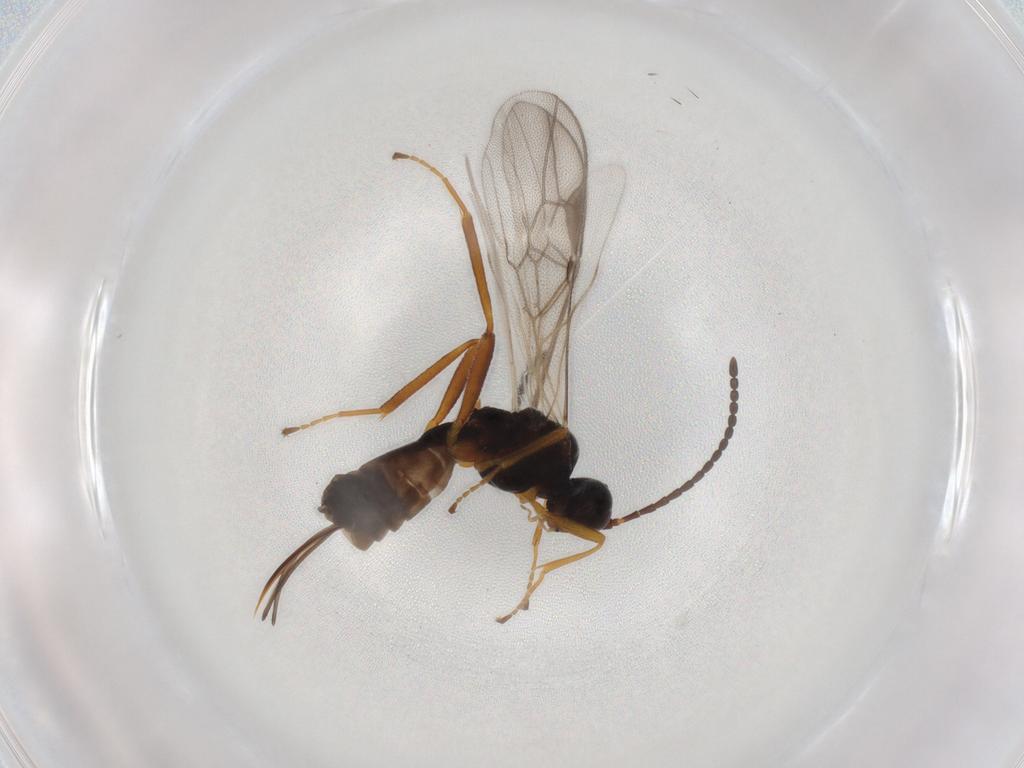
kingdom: Animalia
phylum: Arthropoda
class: Insecta
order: Hymenoptera
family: Braconidae
